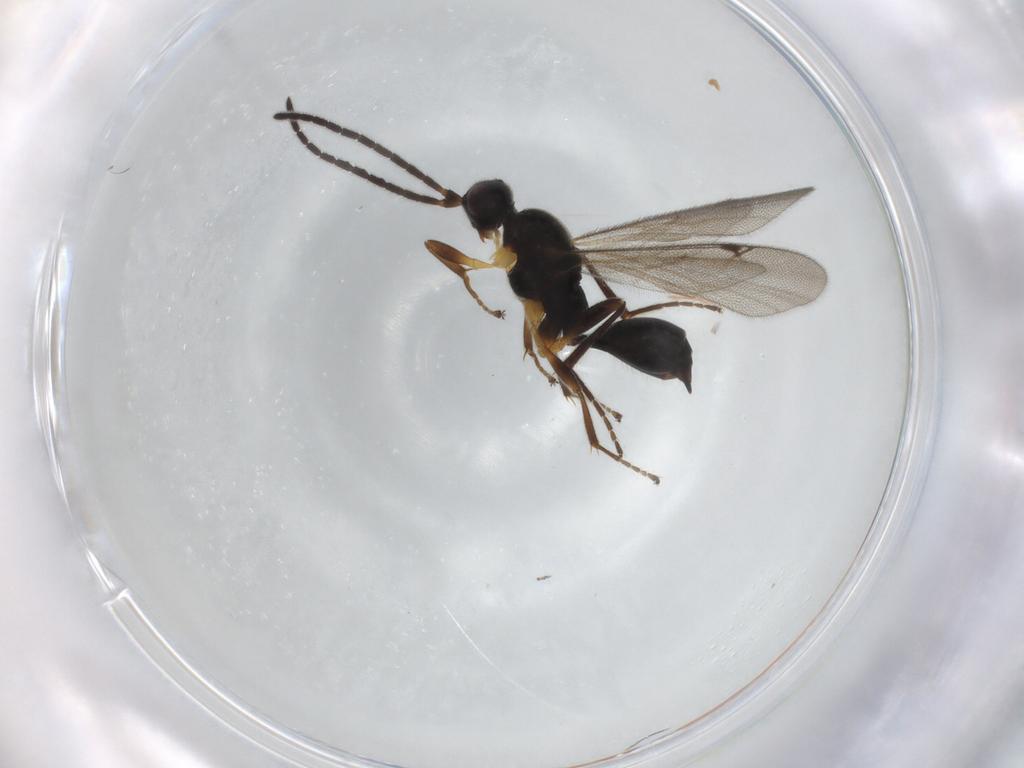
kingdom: Animalia
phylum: Arthropoda
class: Insecta
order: Hymenoptera
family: Proctotrupidae
